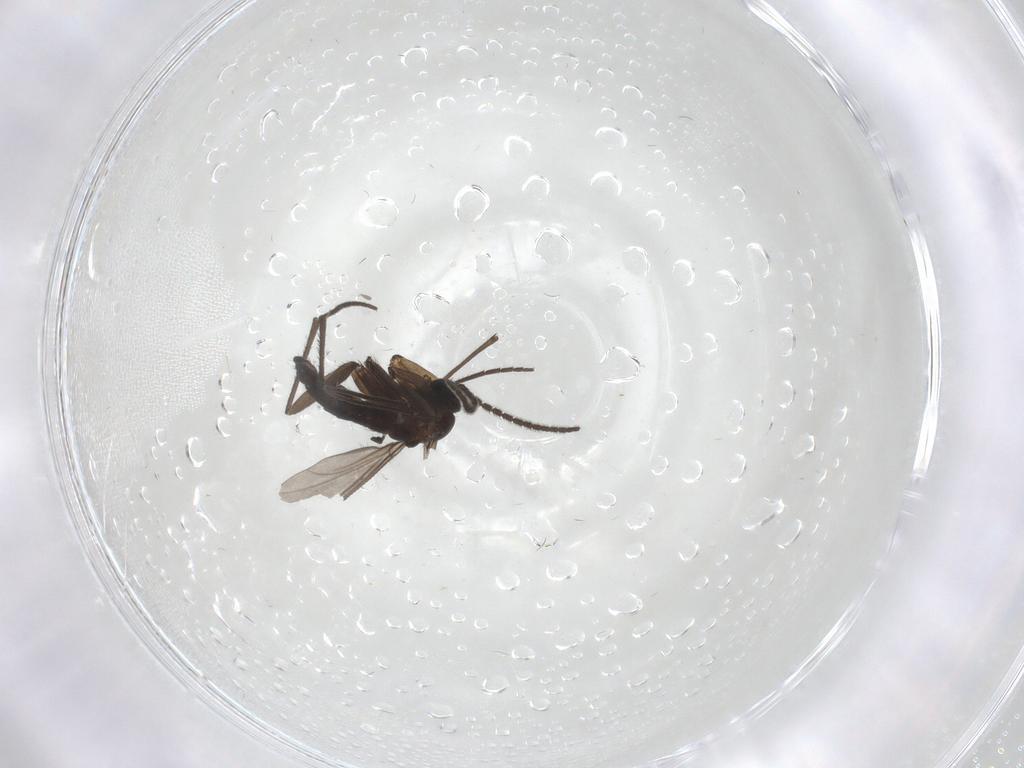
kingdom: Animalia
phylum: Arthropoda
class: Insecta
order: Diptera
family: Sciaridae
